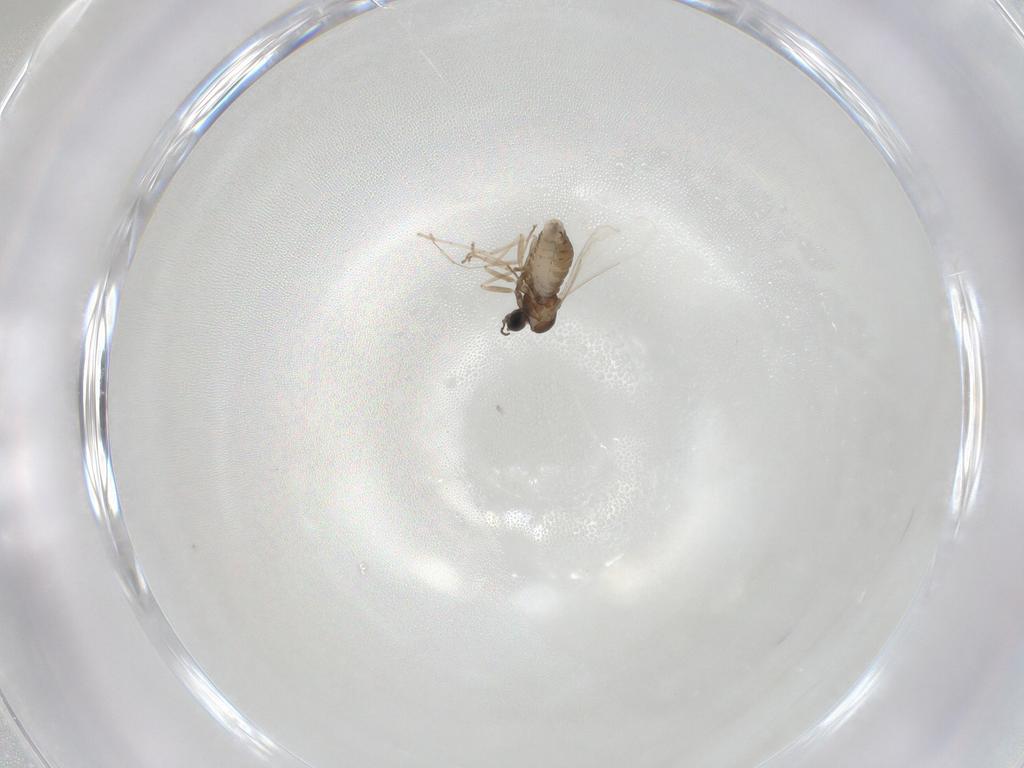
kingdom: Animalia
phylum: Arthropoda
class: Insecta
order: Diptera
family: Cecidomyiidae
